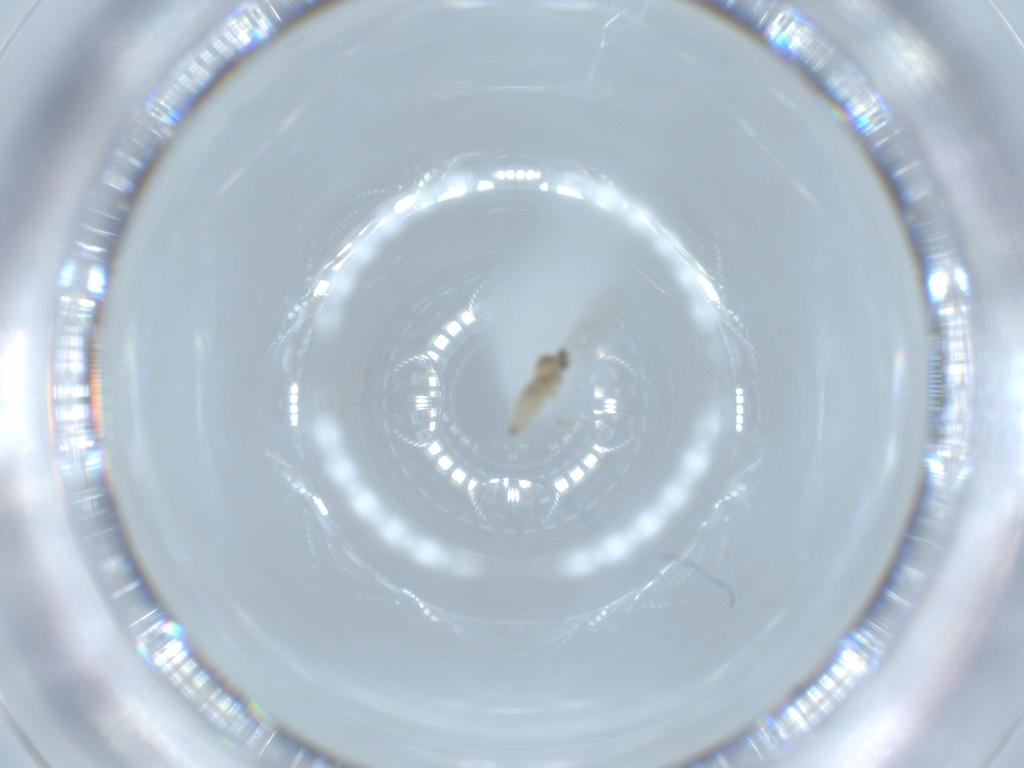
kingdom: Animalia
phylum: Arthropoda
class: Insecta
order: Diptera
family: Cecidomyiidae
